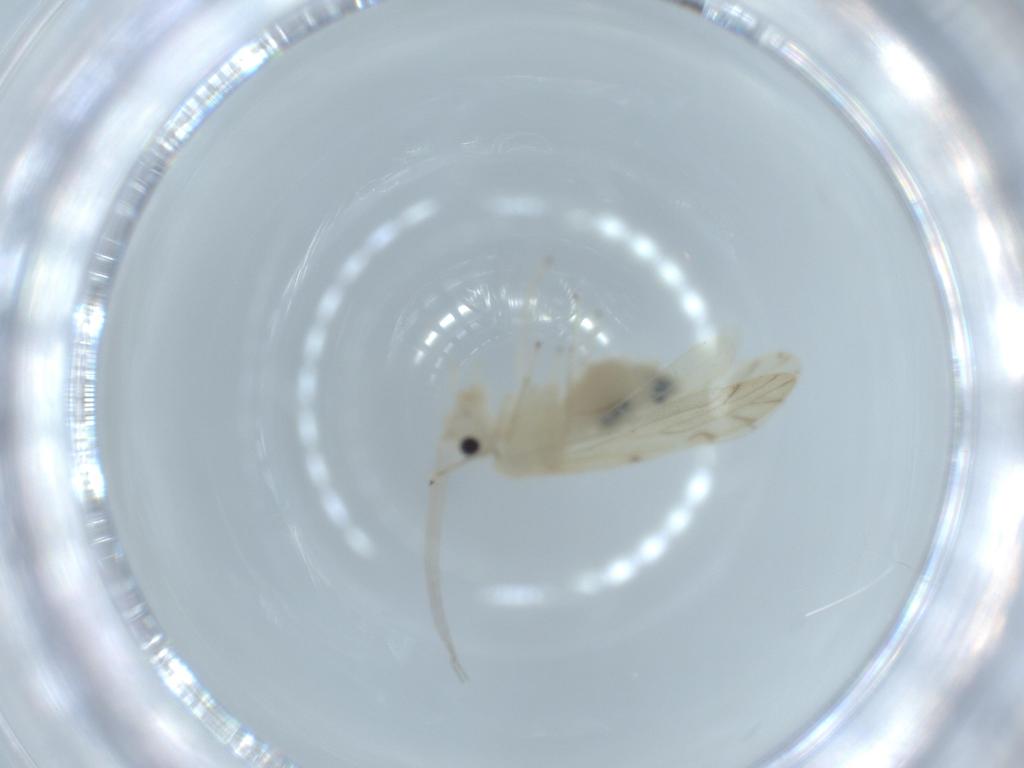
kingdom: Animalia
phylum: Arthropoda
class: Insecta
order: Psocodea
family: Caeciliusidae
